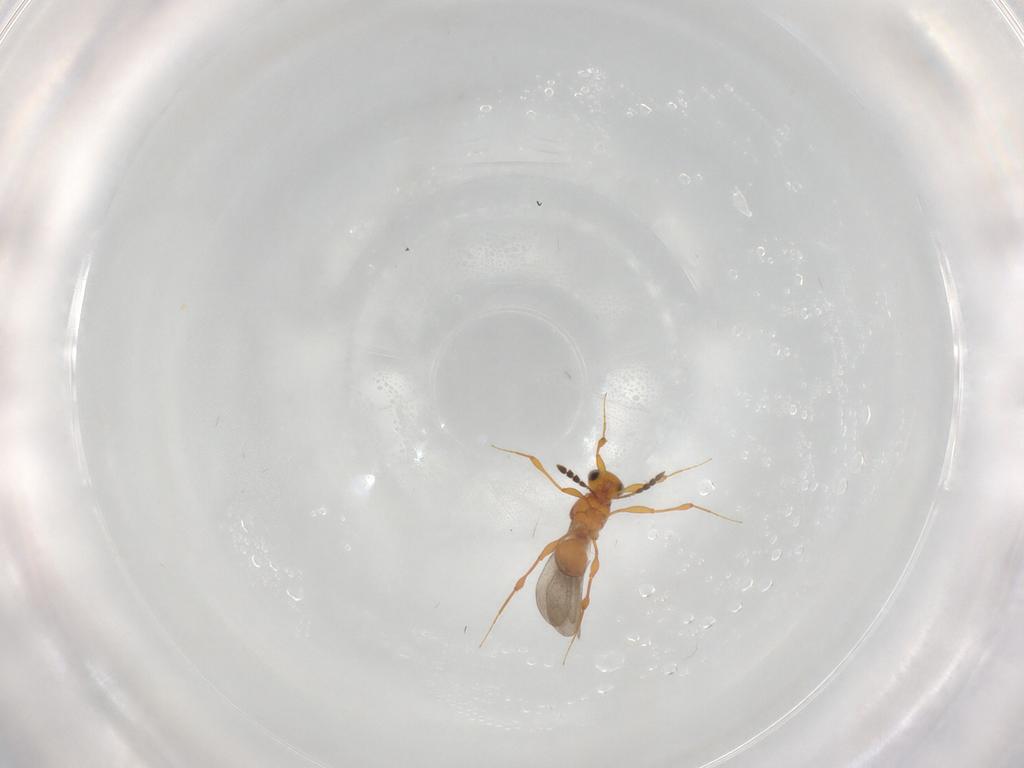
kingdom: Animalia
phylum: Arthropoda
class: Insecta
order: Hymenoptera
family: Platygastridae
